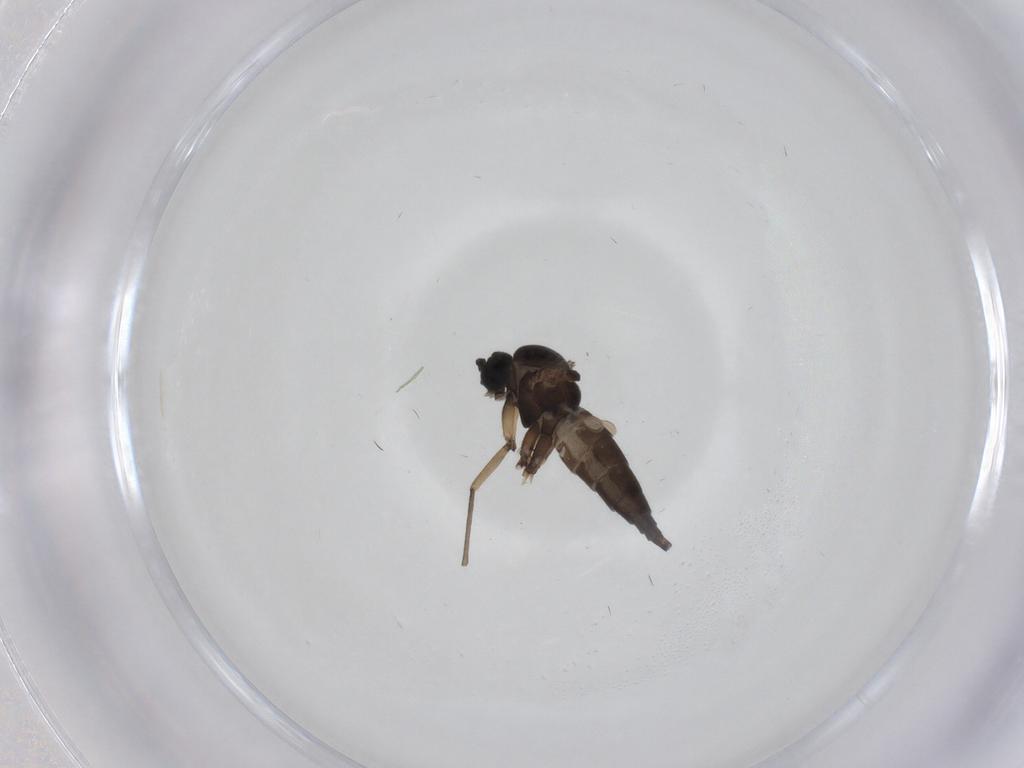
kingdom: Animalia
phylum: Arthropoda
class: Insecta
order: Diptera
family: Sciaridae
